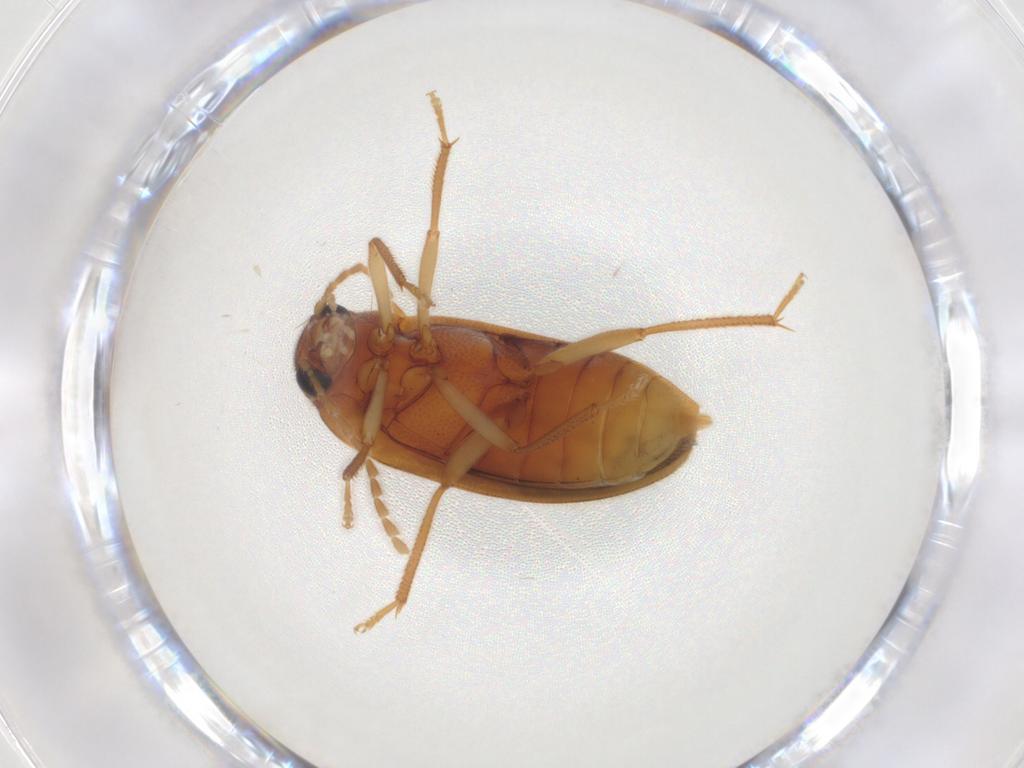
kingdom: Animalia
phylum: Arthropoda
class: Insecta
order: Coleoptera
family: Ptilodactylidae
